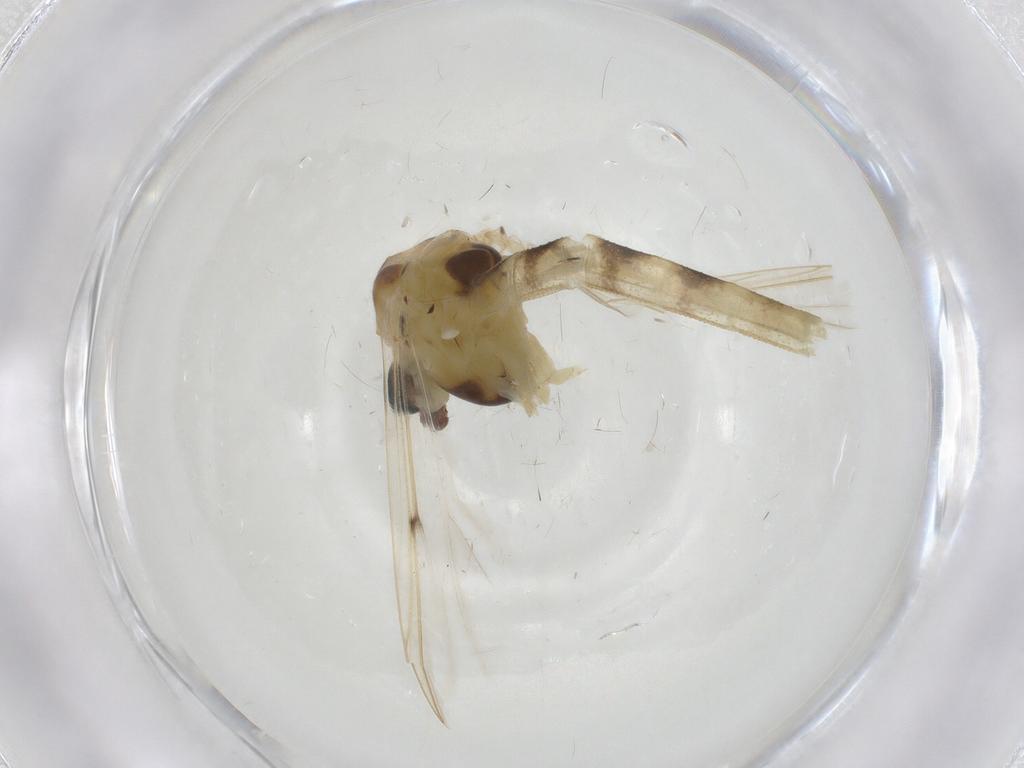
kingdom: Animalia
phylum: Arthropoda
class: Insecta
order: Diptera
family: Chironomidae
